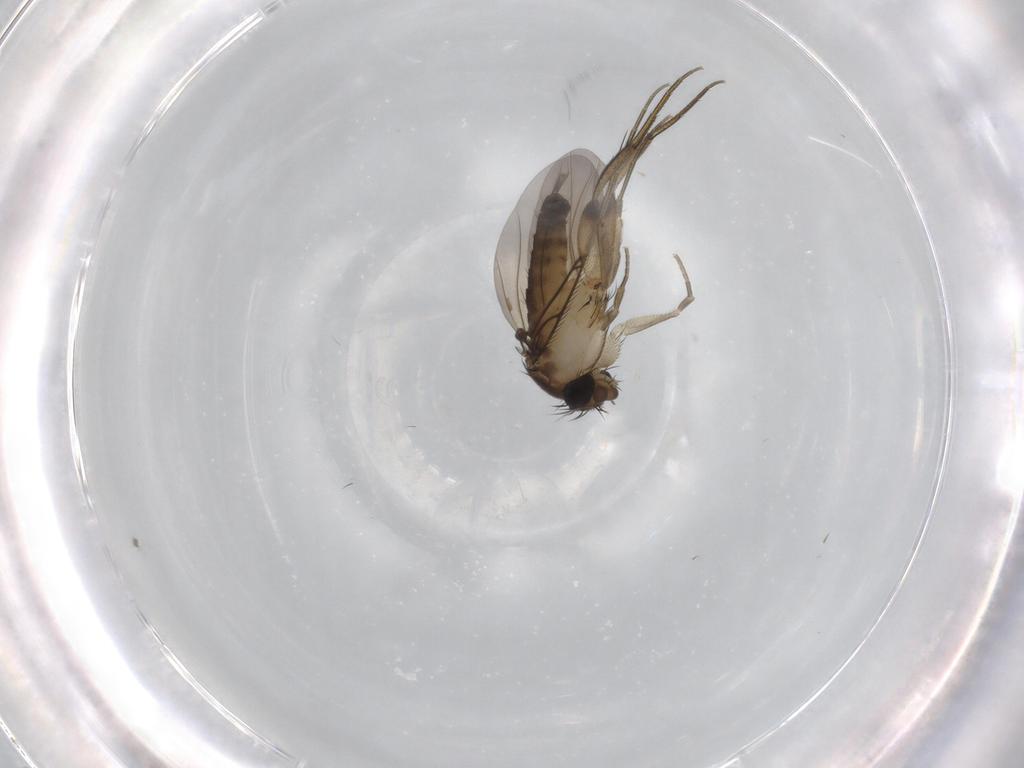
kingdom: Animalia
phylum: Arthropoda
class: Insecta
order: Diptera
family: Phoridae
